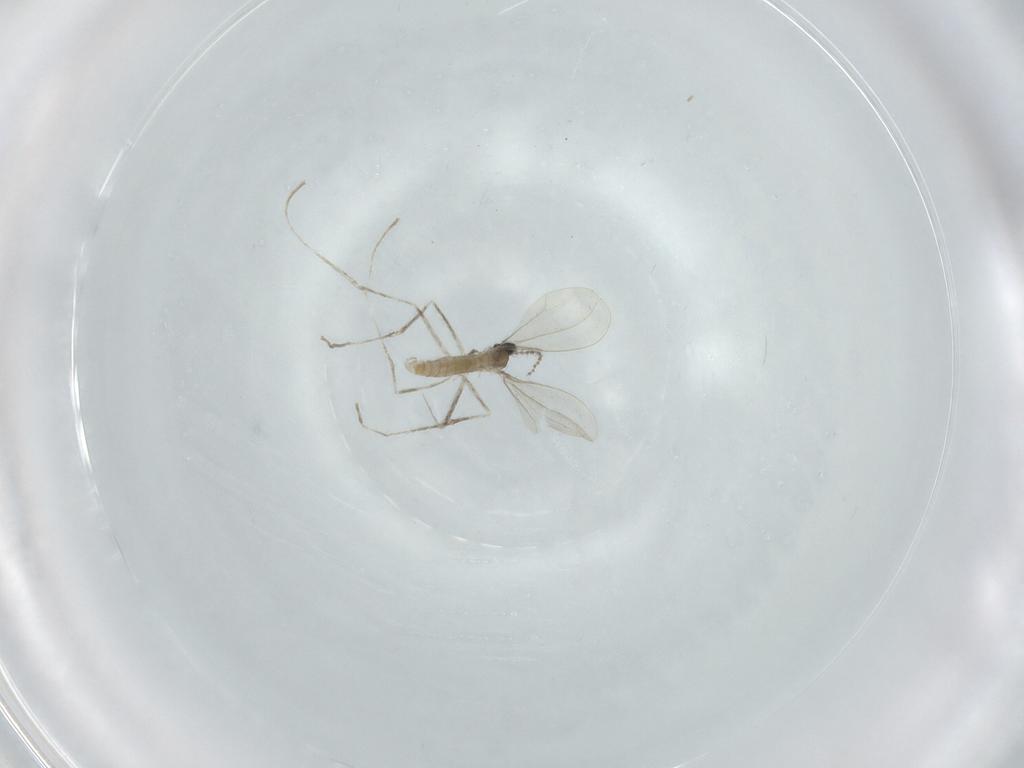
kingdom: Animalia
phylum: Arthropoda
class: Insecta
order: Diptera
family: Cecidomyiidae
